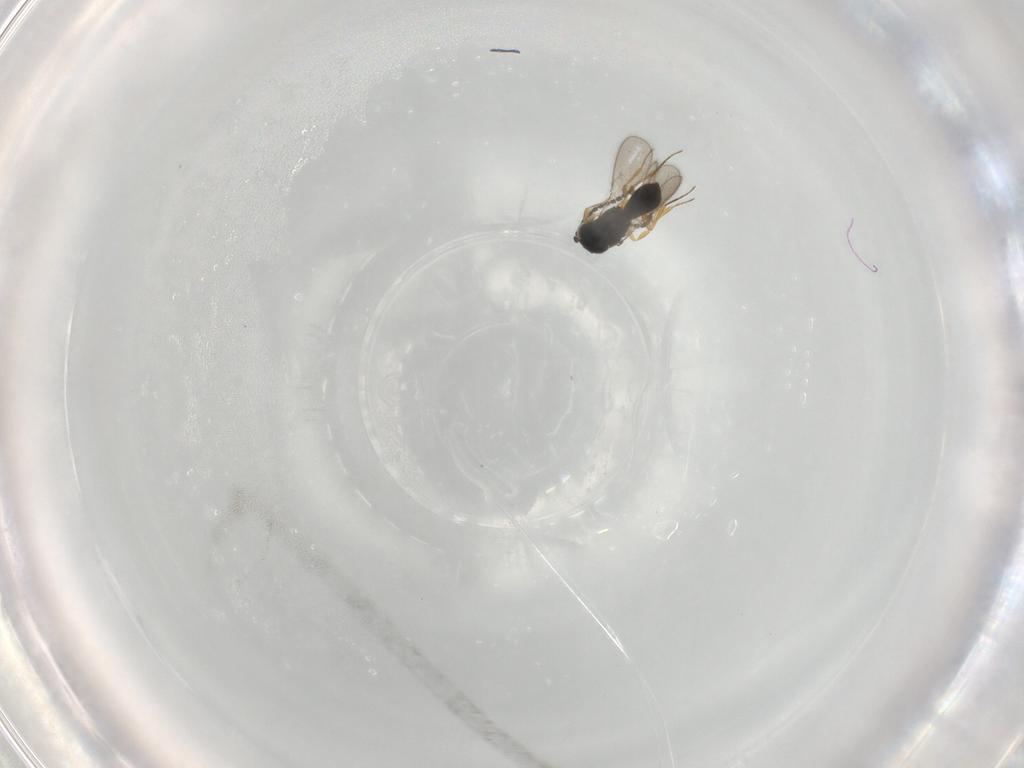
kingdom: Animalia
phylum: Arthropoda
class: Insecta
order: Hymenoptera
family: Scelionidae
